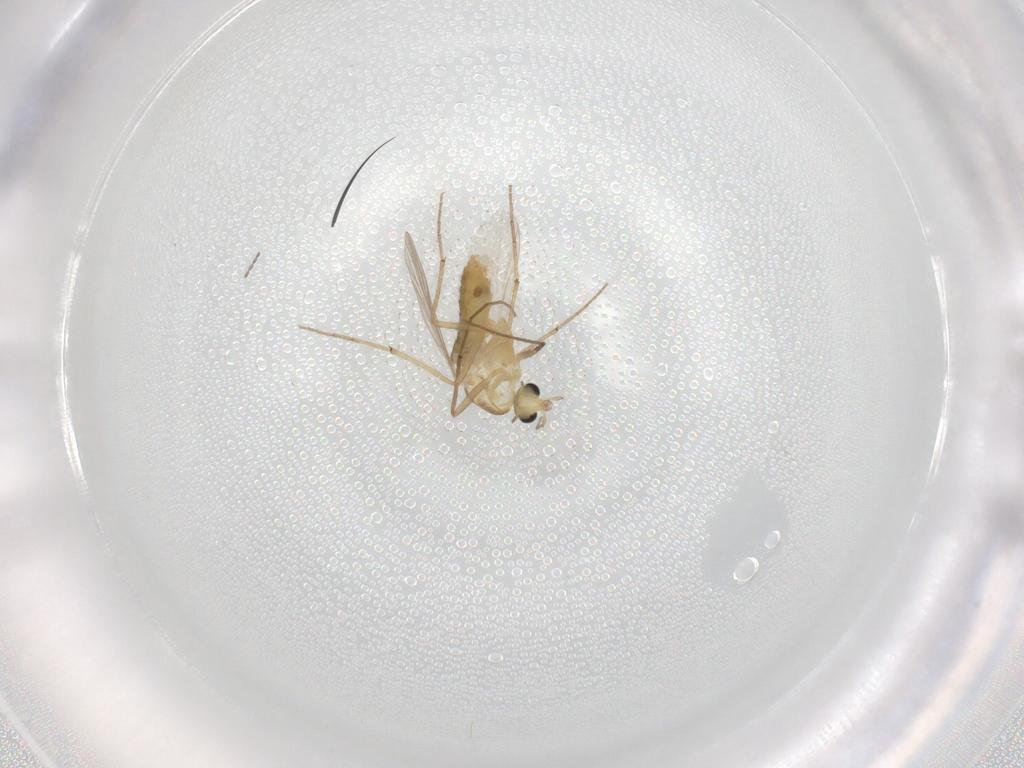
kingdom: Animalia
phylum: Arthropoda
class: Insecta
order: Diptera
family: Chironomidae
